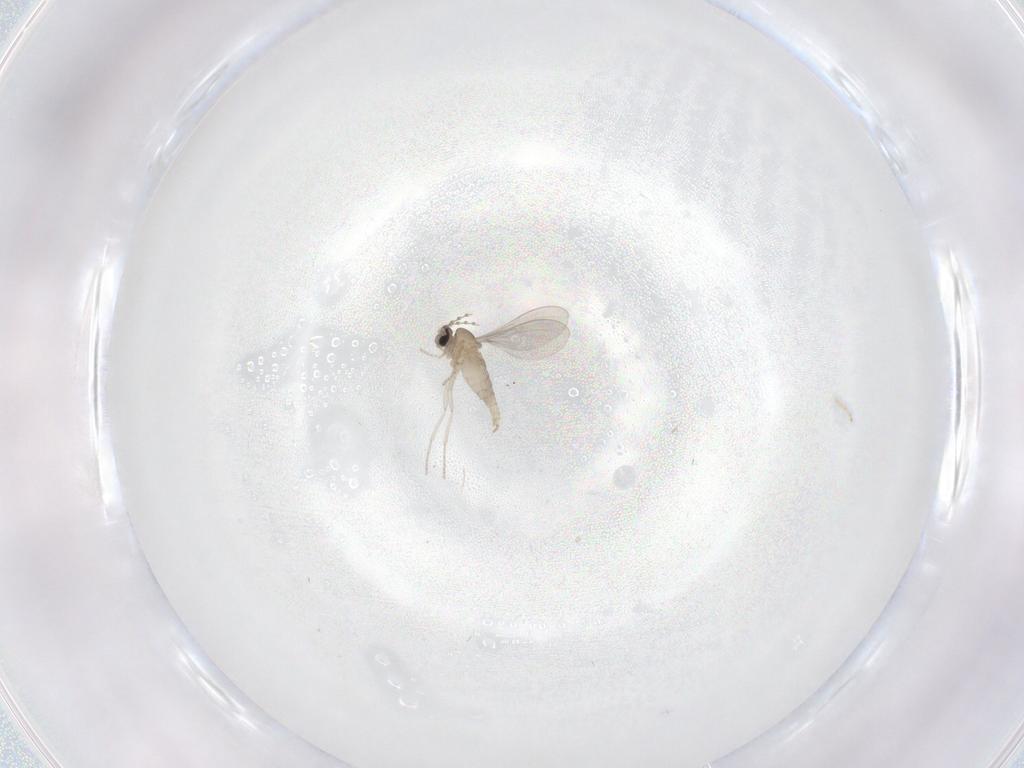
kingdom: Animalia
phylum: Arthropoda
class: Insecta
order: Diptera
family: Cecidomyiidae
